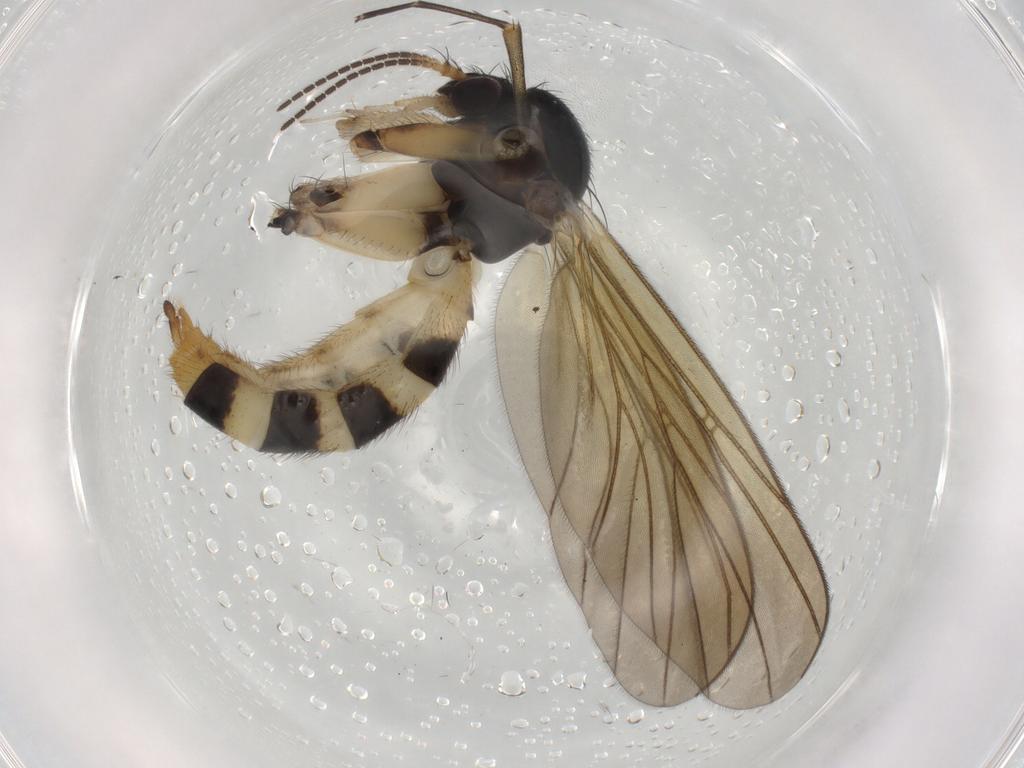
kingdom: Animalia
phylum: Arthropoda
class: Insecta
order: Diptera
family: Mycetophilidae
